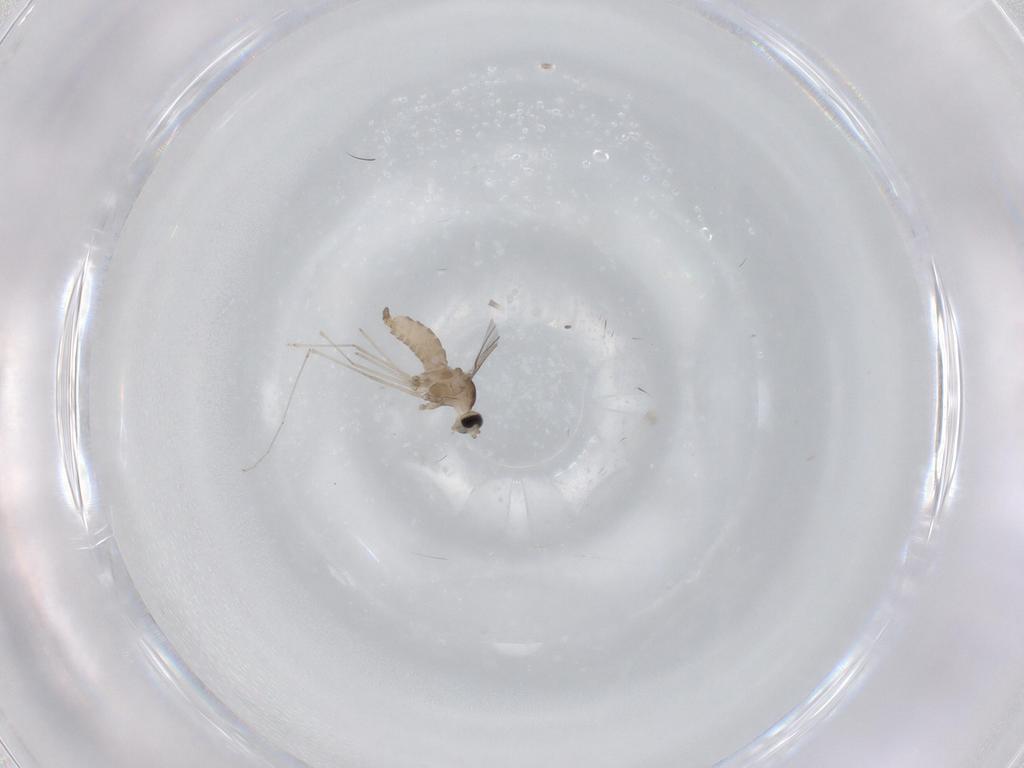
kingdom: Animalia
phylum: Arthropoda
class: Insecta
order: Diptera
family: Cecidomyiidae
